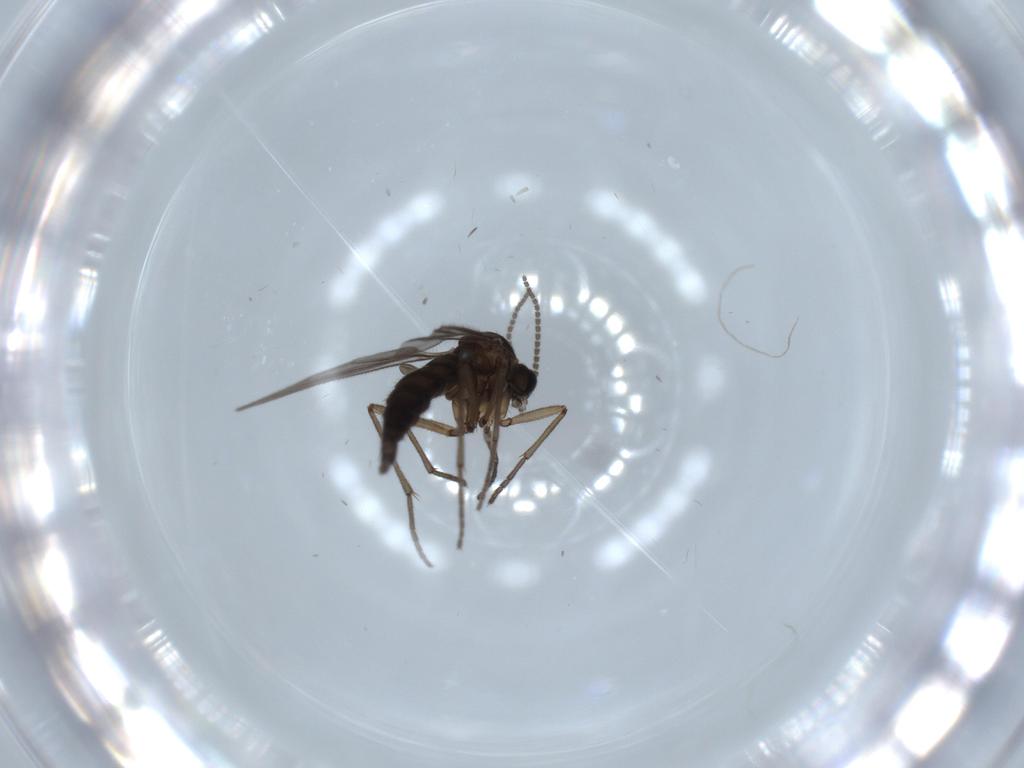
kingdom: Animalia
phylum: Arthropoda
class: Insecta
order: Diptera
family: Sciaridae
